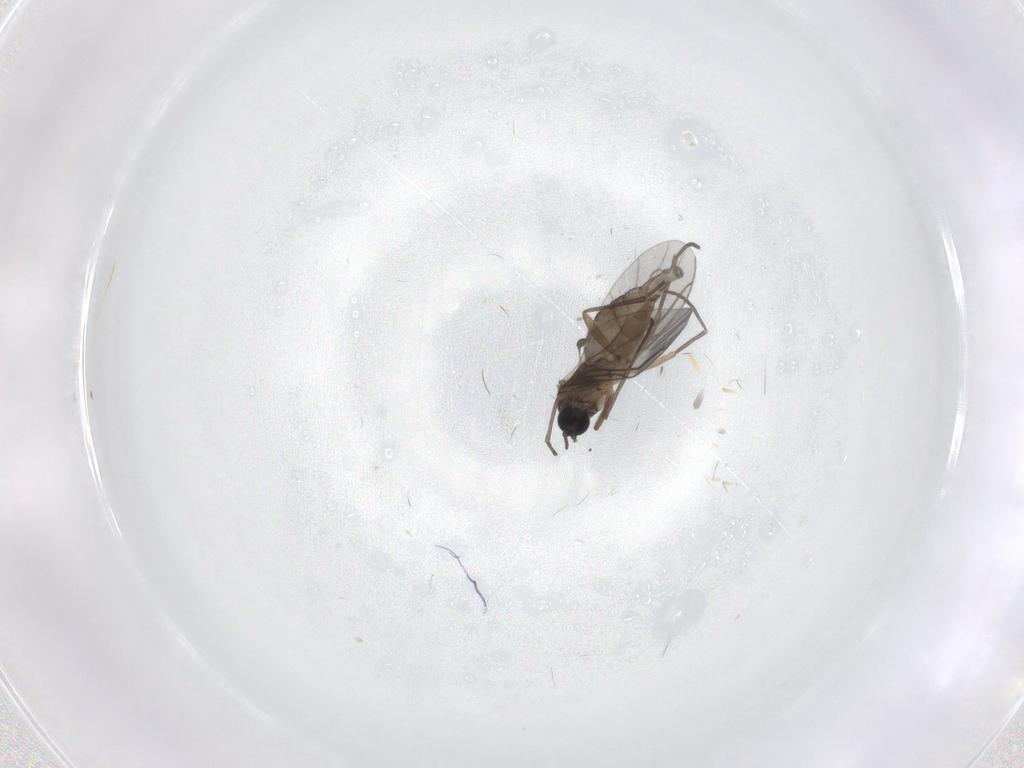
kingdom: Animalia
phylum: Arthropoda
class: Insecta
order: Diptera
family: Sciaridae
